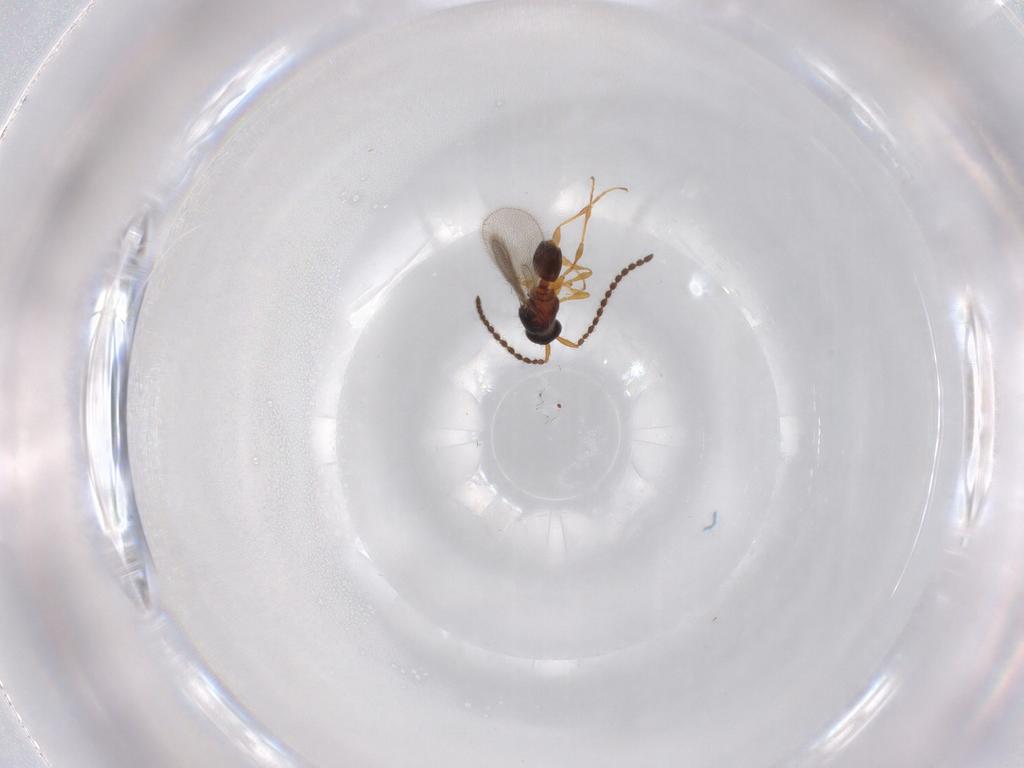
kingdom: Animalia
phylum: Arthropoda
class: Insecta
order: Hymenoptera
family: Diapriidae
